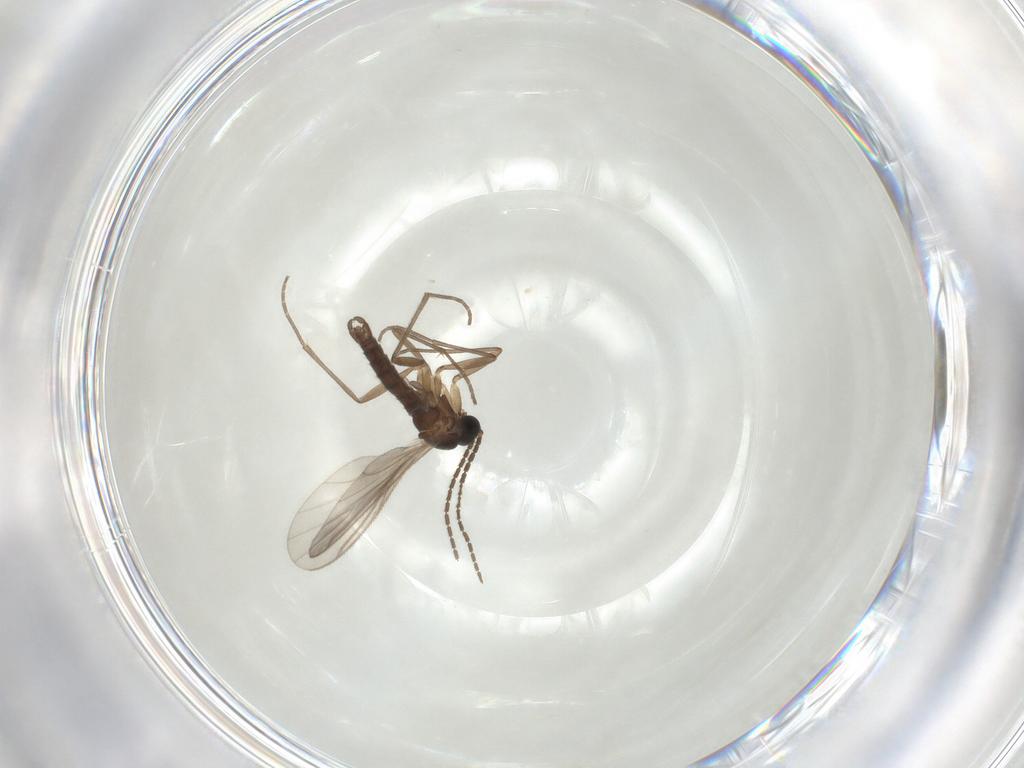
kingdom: Animalia
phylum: Arthropoda
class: Insecta
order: Diptera
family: Sciaridae
